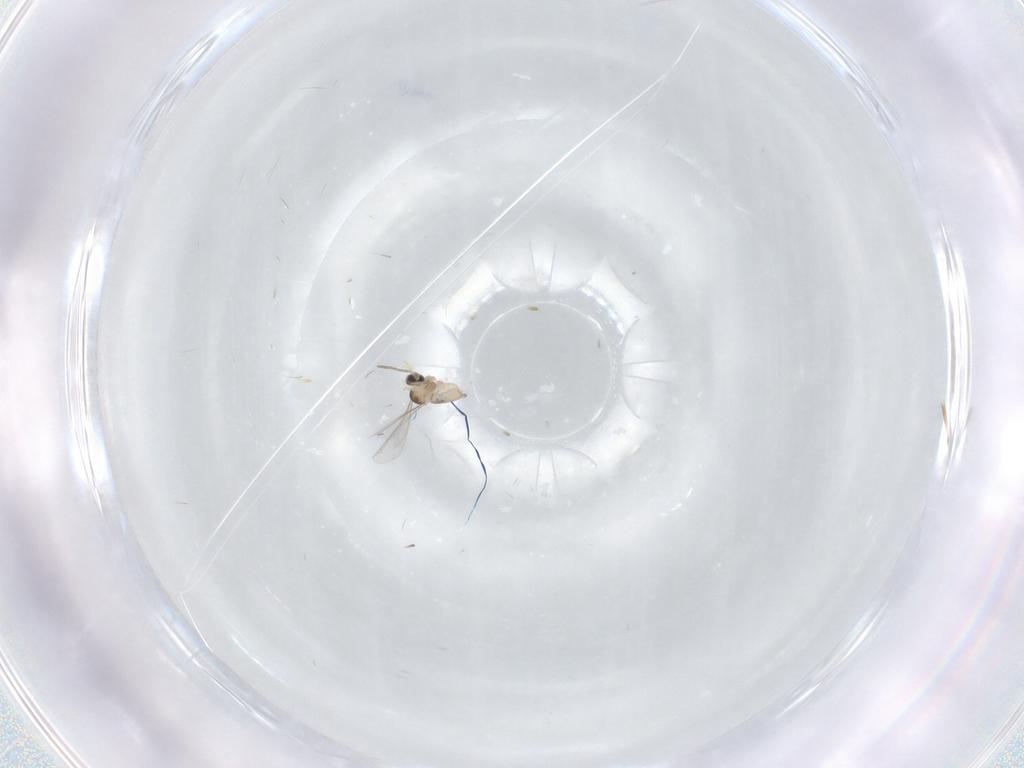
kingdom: Animalia
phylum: Arthropoda
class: Insecta
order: Diptera
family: Cecidomyiidae
